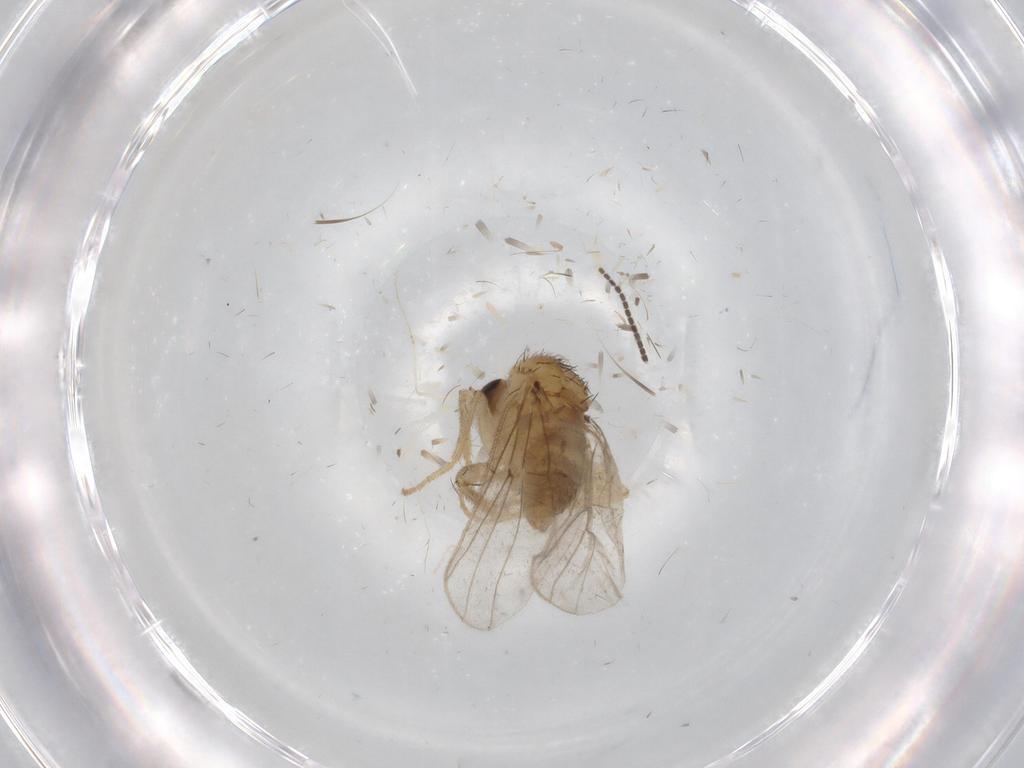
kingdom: Animalia
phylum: Arthropoda
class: Insecta
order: Diptera
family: Hybotidae
